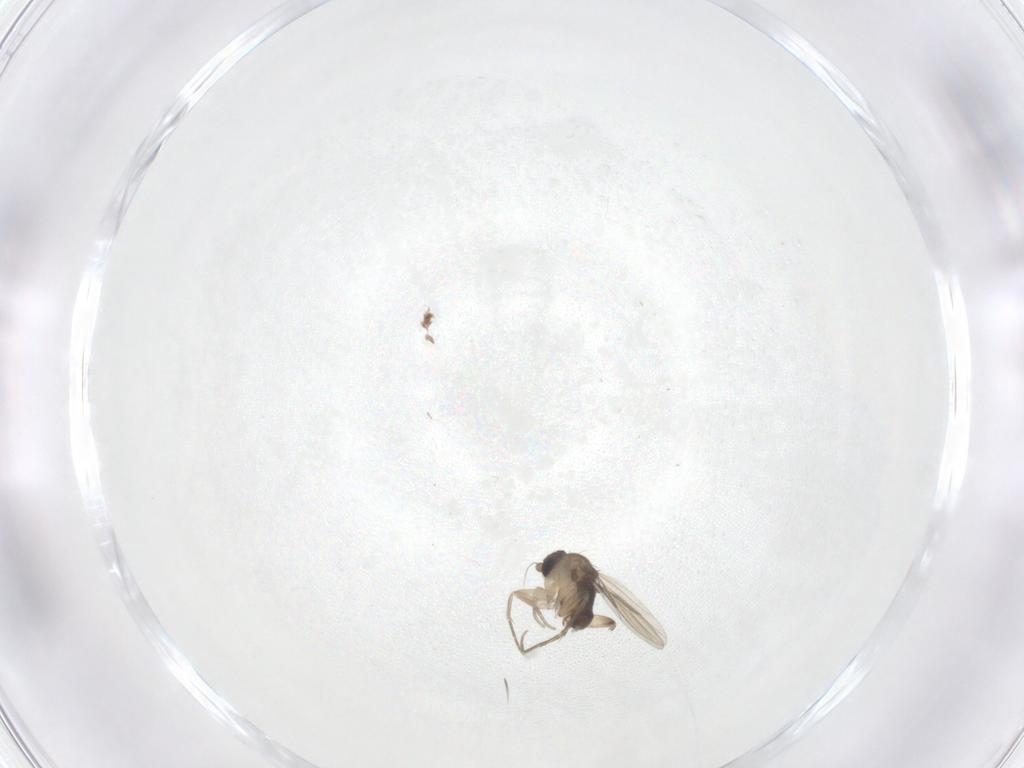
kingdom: Animalia
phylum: Arthropoda
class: Insecta
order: Diptera
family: Phoridae
